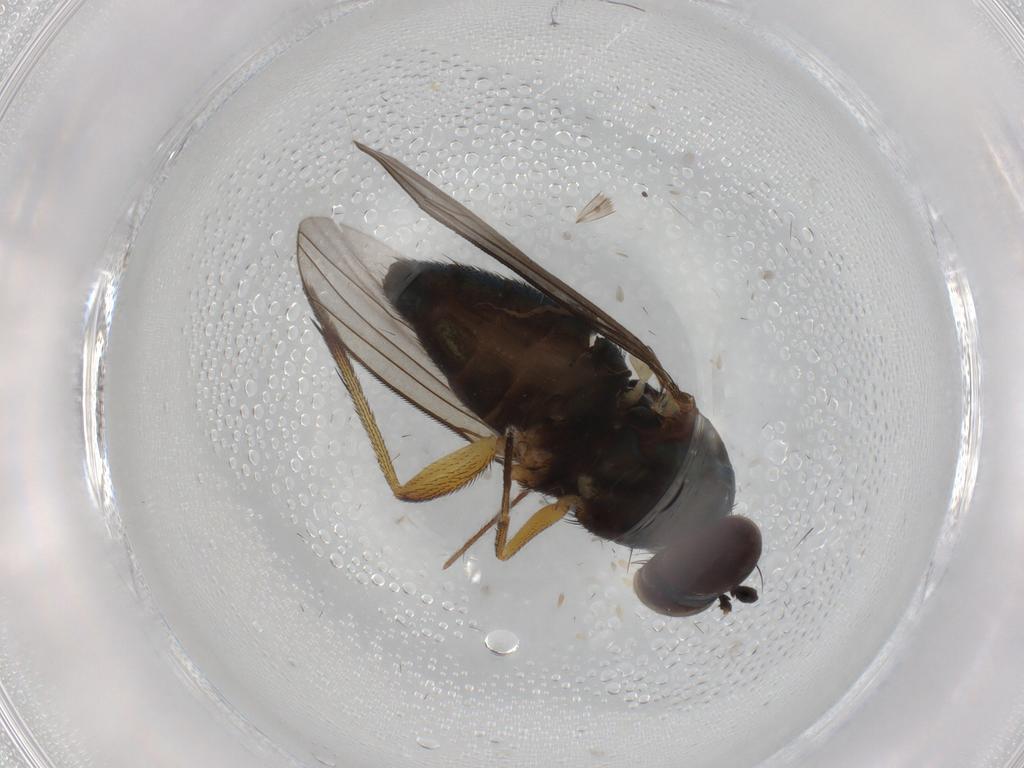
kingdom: Animalia
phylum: Arthropoda
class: Insecta
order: Diptera
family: Tipulidae
